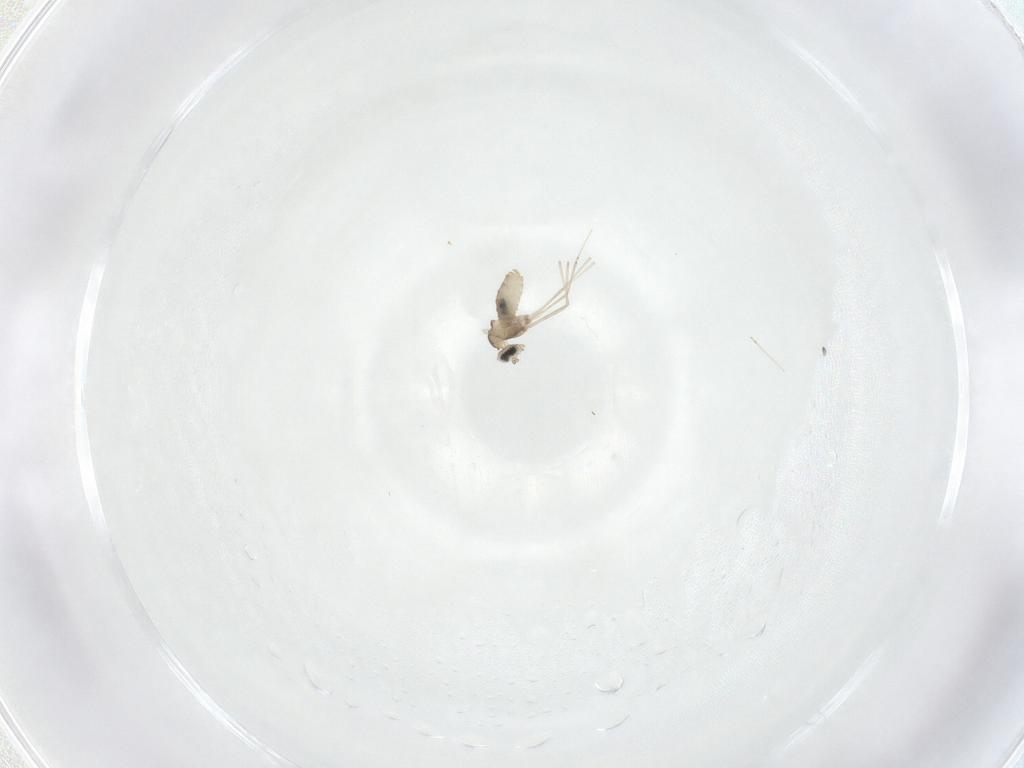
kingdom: Animalia
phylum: Arthropoda
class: Insecta
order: Diptera
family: Cecidomyiidae
